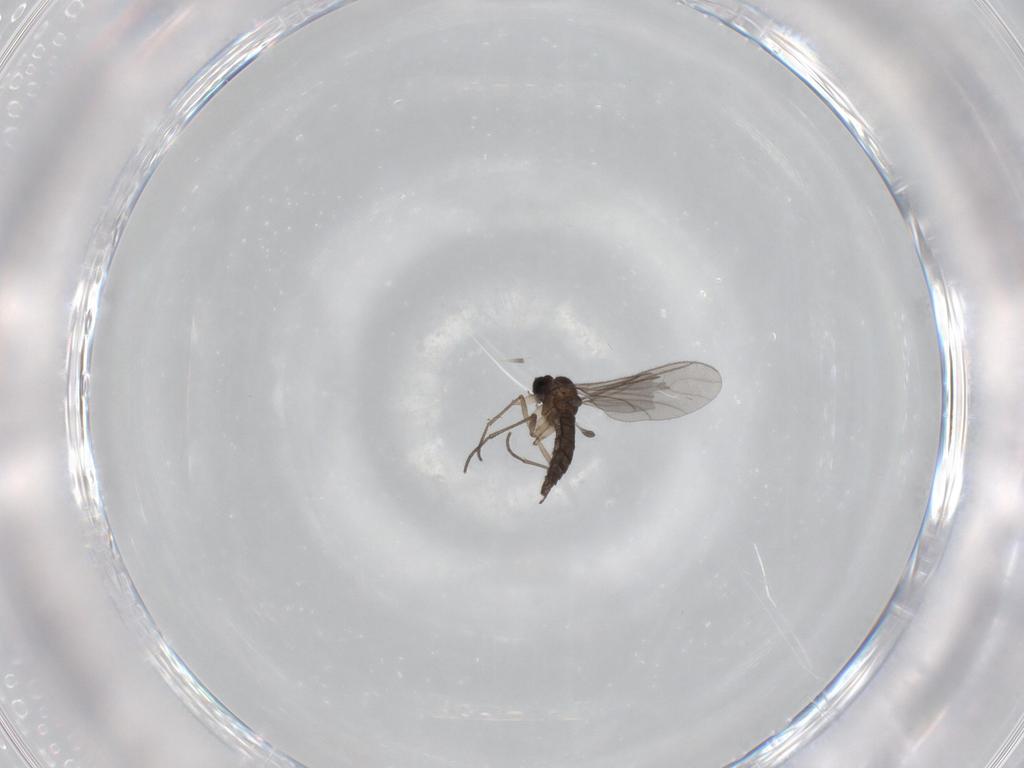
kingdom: Animalia
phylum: Arthropoda
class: Insecta
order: Diptera
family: Sciaridae
